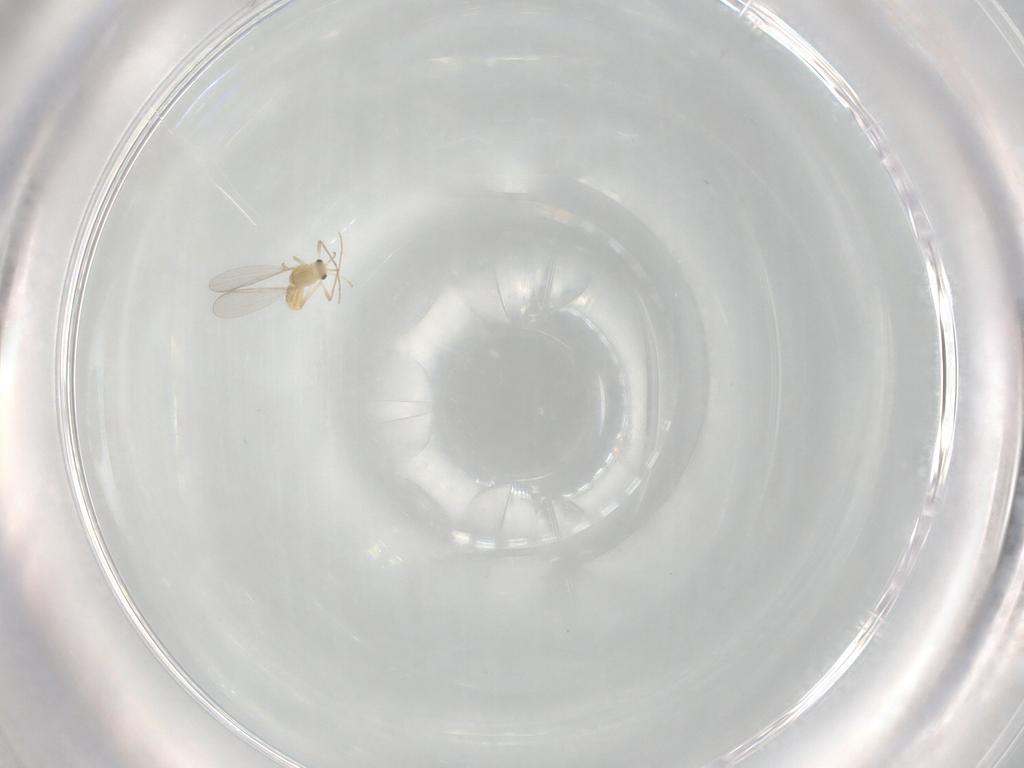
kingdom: Animalia
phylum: Arthropoda
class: Insecta
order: Diptera
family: Chironomidae
